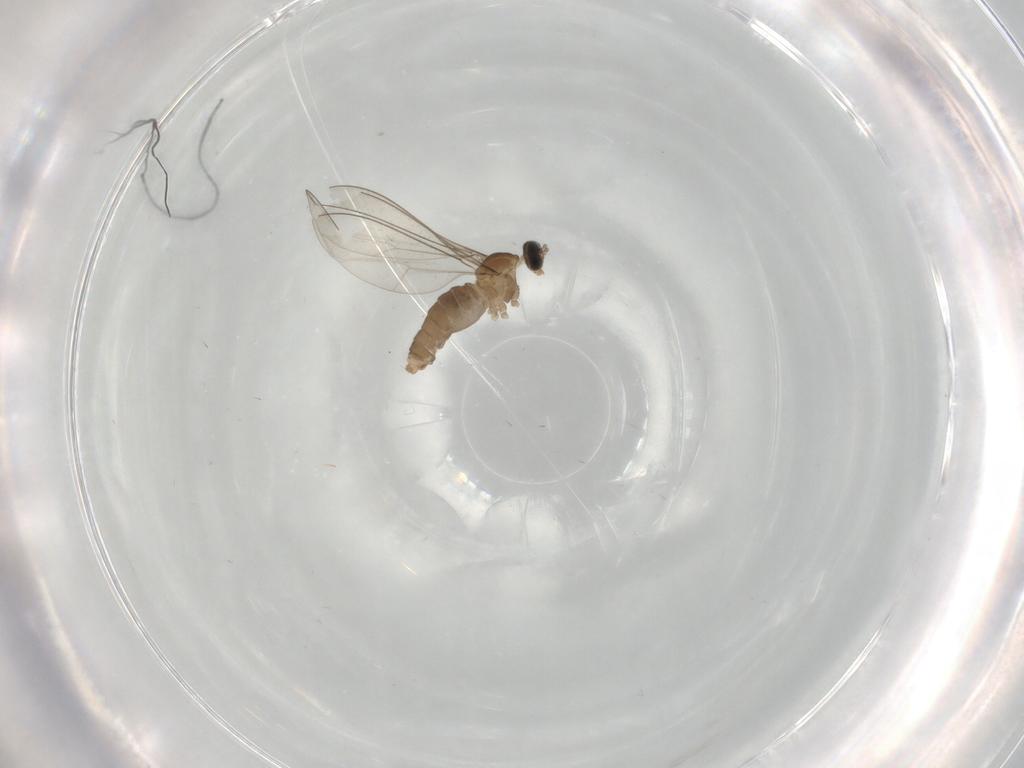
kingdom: Animalia
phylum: Arthropoda
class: Insecta
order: Diptera
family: Cecidomyiidae
